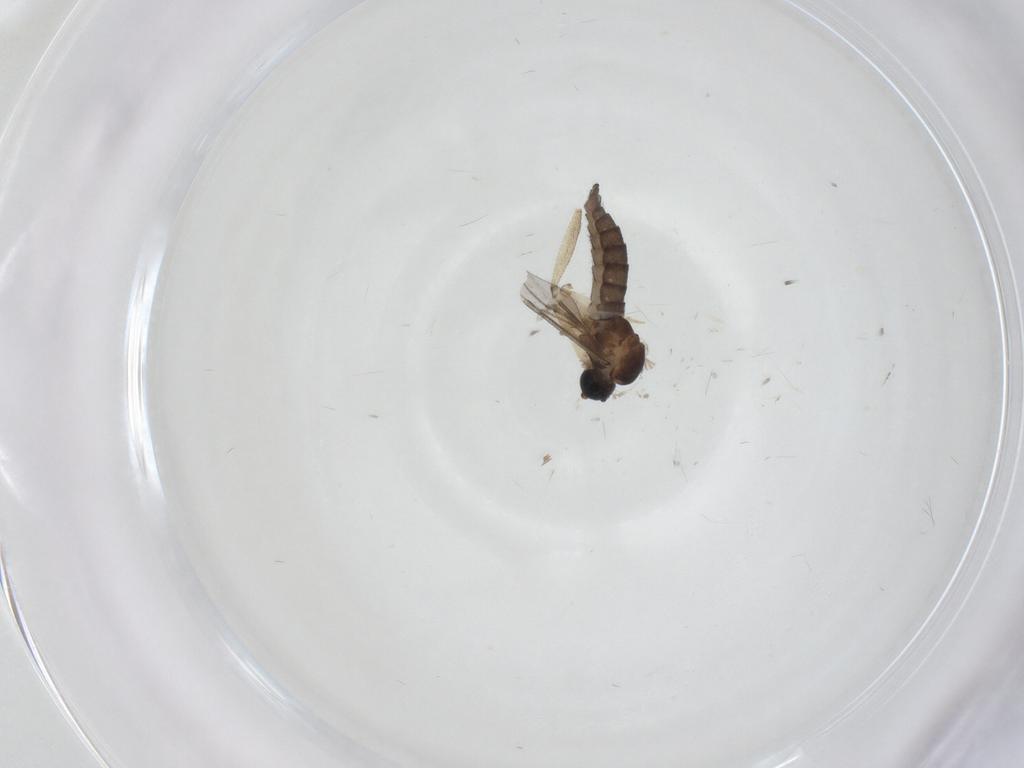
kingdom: Animalia
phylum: Arthropoda
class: Insecta
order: Diptera
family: Sciaridae
